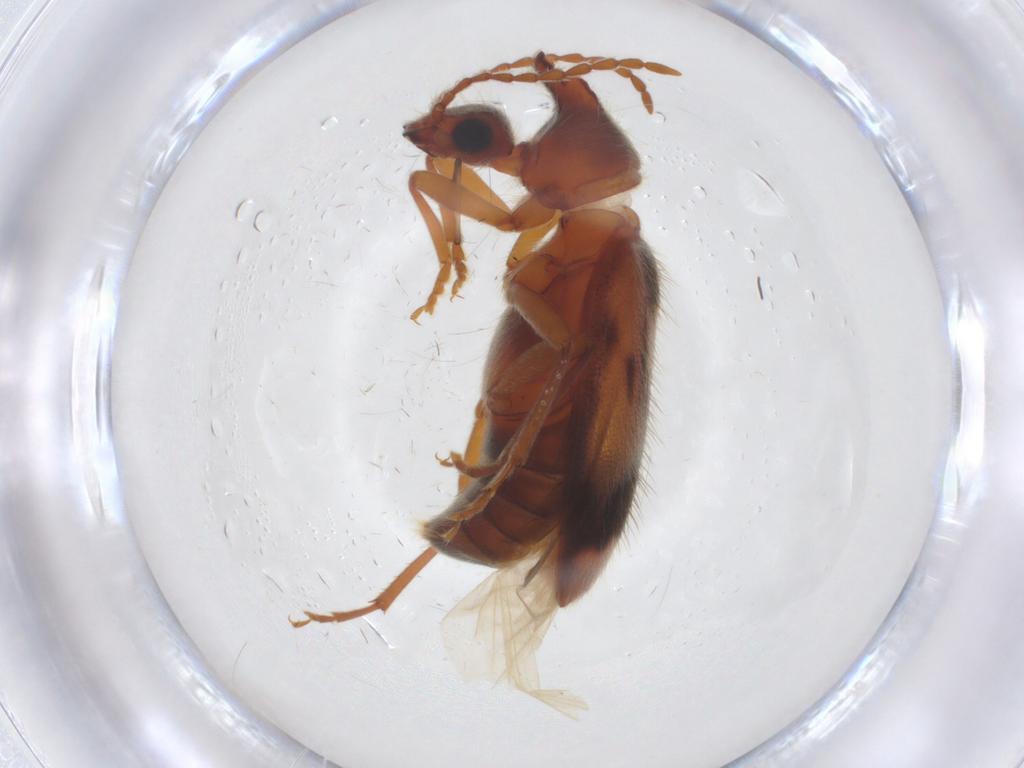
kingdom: Animalia
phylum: Arthropoda
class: Insecta
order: Coleoptera
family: Anthicidae
